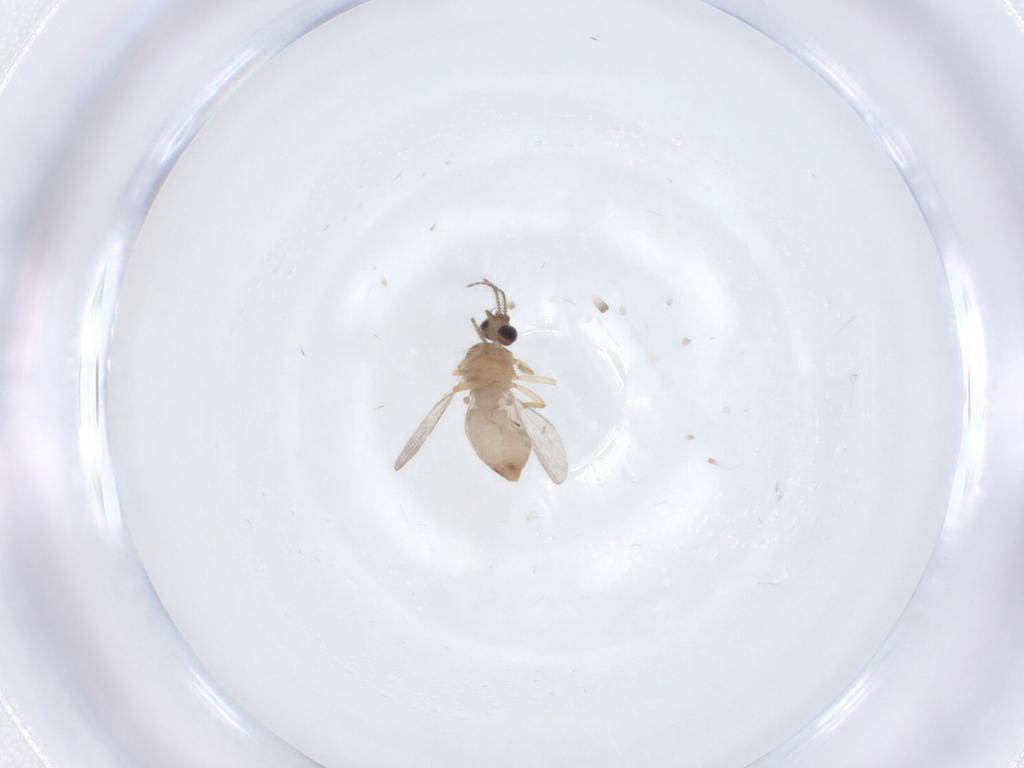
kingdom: Animalia
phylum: Arthropoda
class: Insecta
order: Diptera
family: Ceratopogonidae
